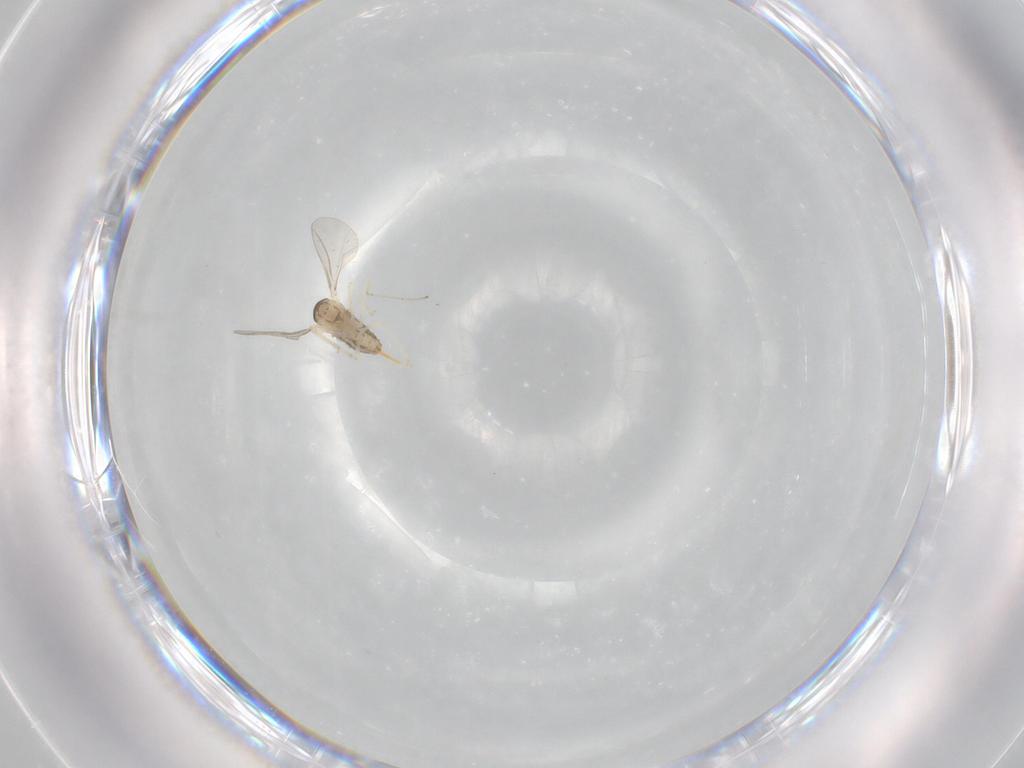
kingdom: Animalia
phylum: Arthropoda
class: Insecta
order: Diptera
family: Cecidomyiidae
